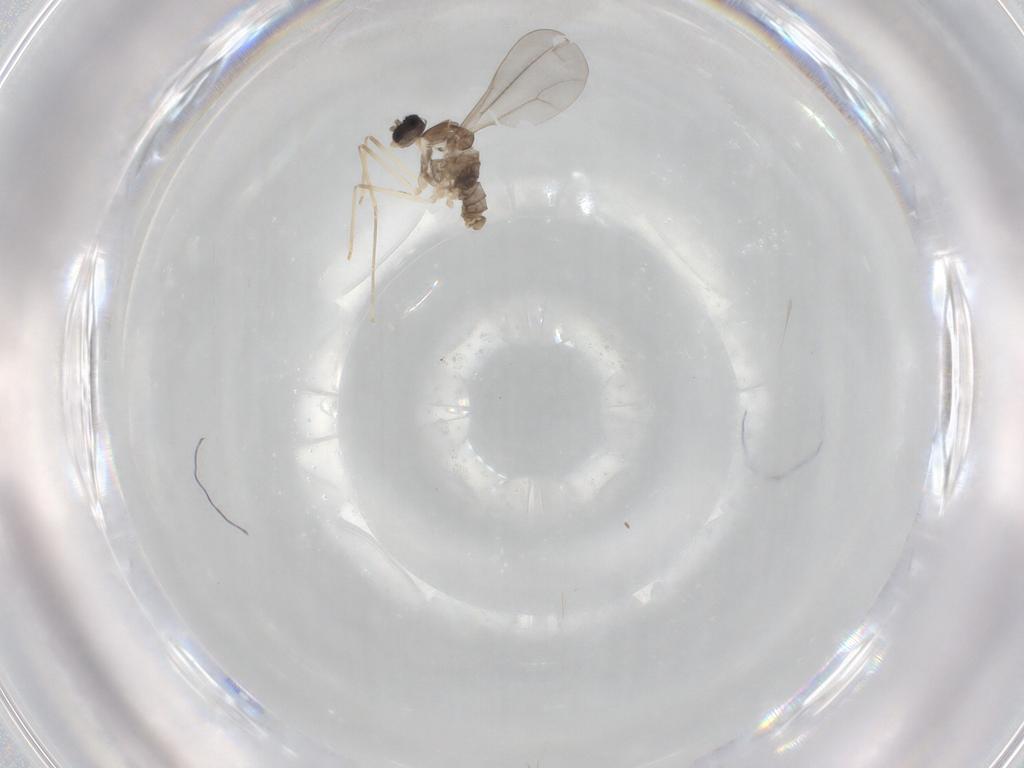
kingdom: Animalia
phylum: Arthropoda
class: Insecta
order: Diptera
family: Cecidomyiidae
